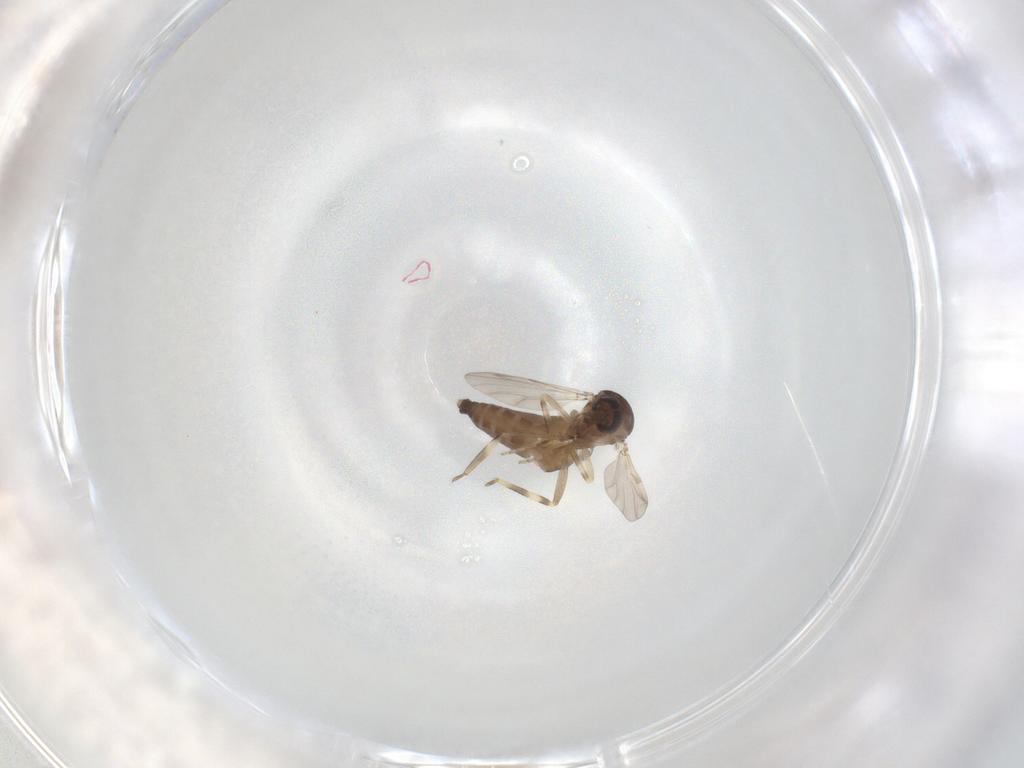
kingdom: Animalia
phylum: Arthropoda
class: Insecta
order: Diptera
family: Ceratopogonidae
